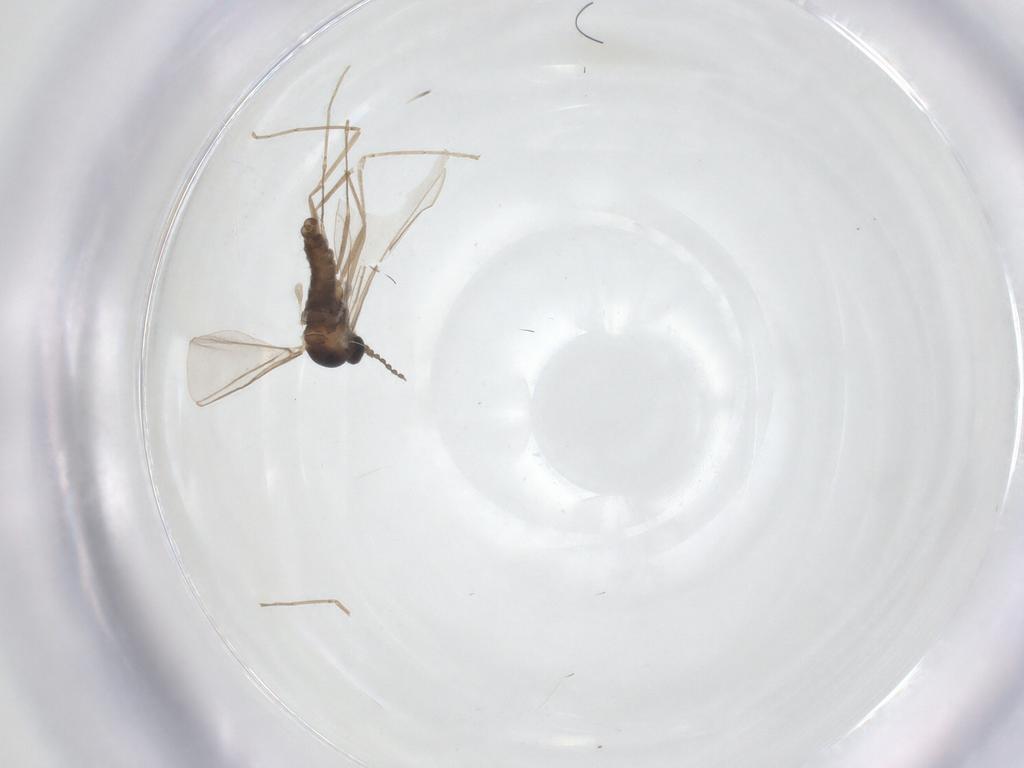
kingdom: Animalia
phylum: Arthropoda
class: Insecta
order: Diptera
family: Cecidomyiidae
